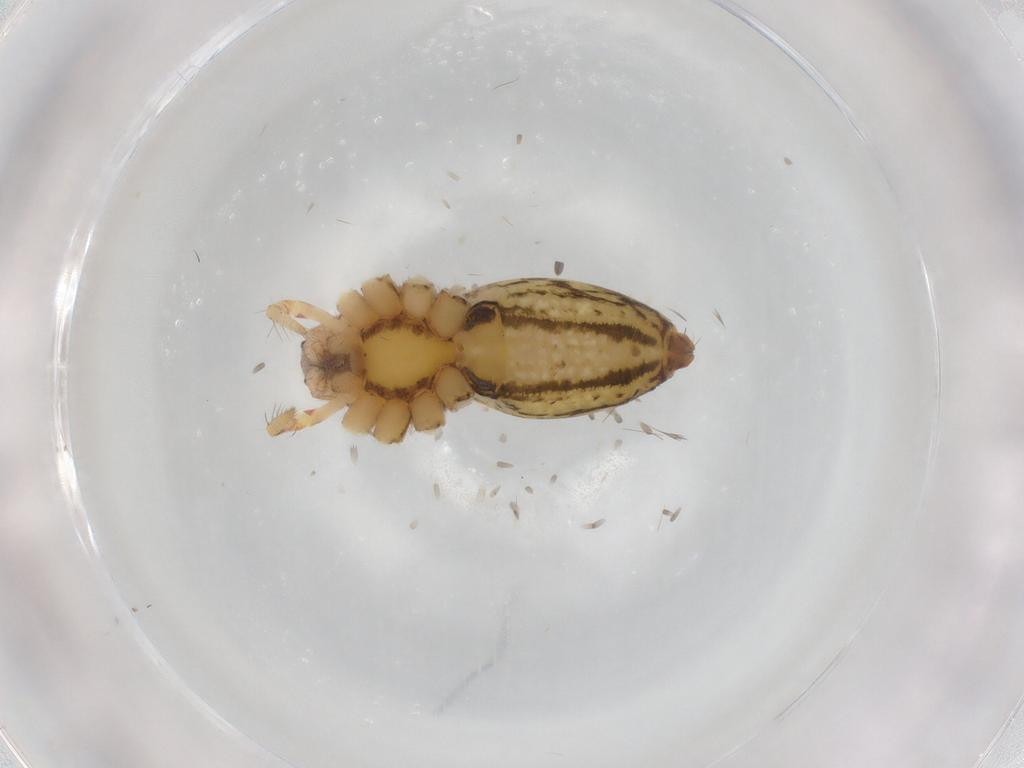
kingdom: Animalia
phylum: Arthropoda
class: Arachnida
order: Araneae
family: Pisauridae
